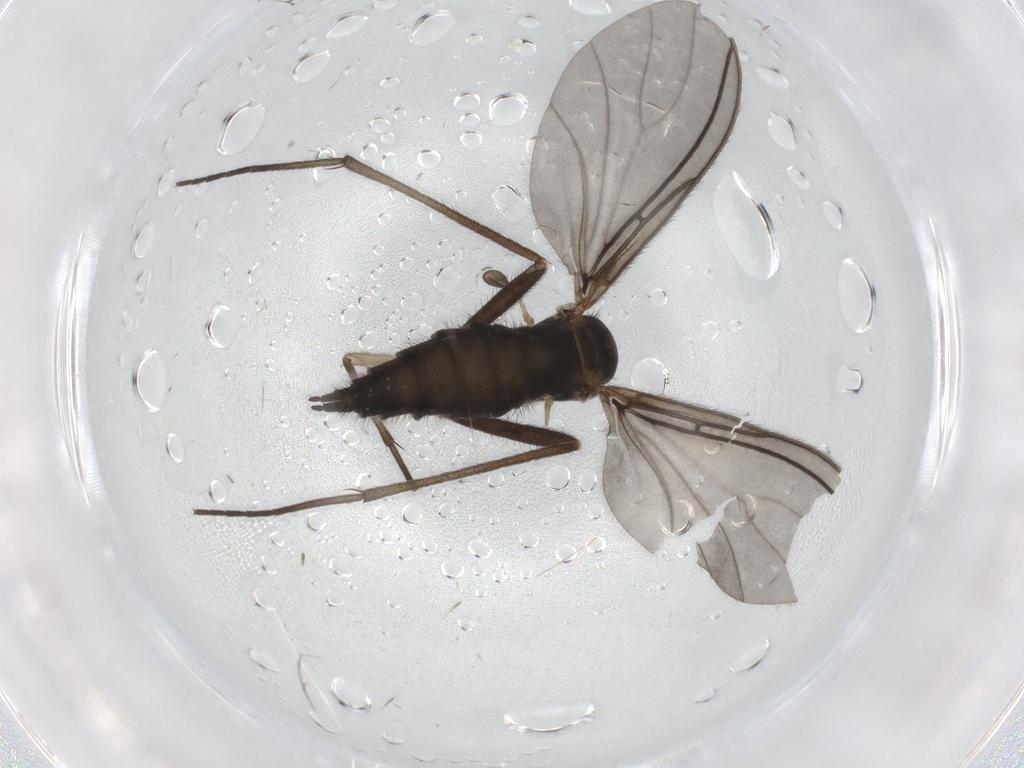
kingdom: Animalia
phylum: Arthropoda
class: Insecta
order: Diptera
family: Sciaridae
